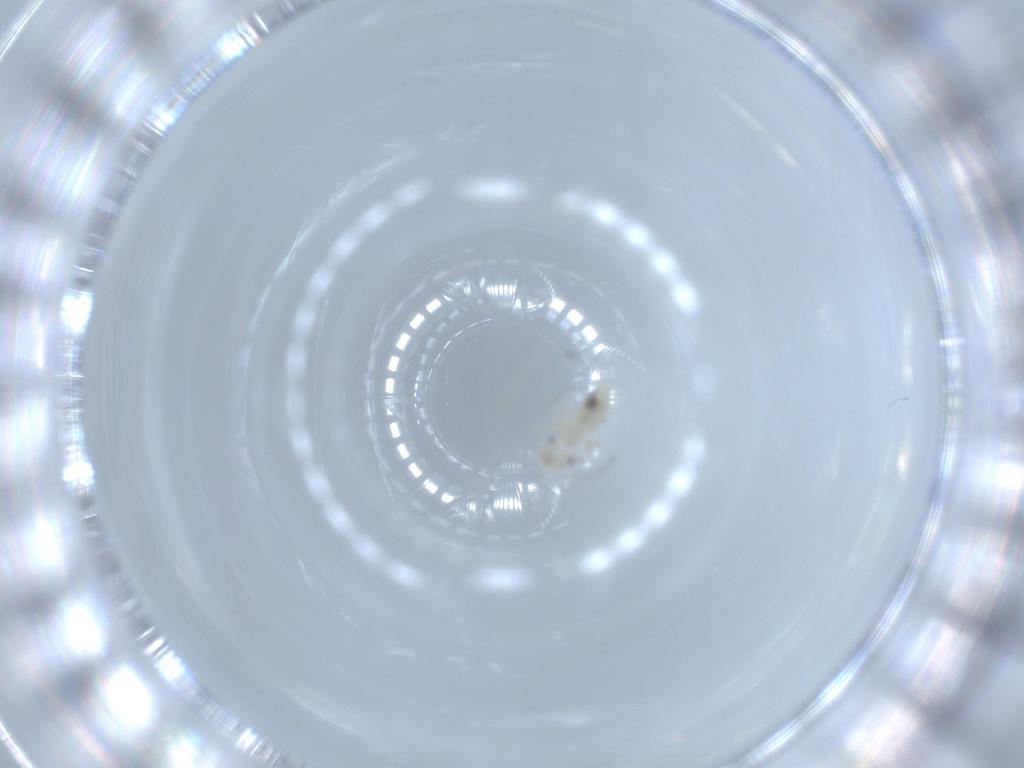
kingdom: Animalia
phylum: Arthropoda
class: Insecta
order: Psocodea
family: Caeciliusidae
